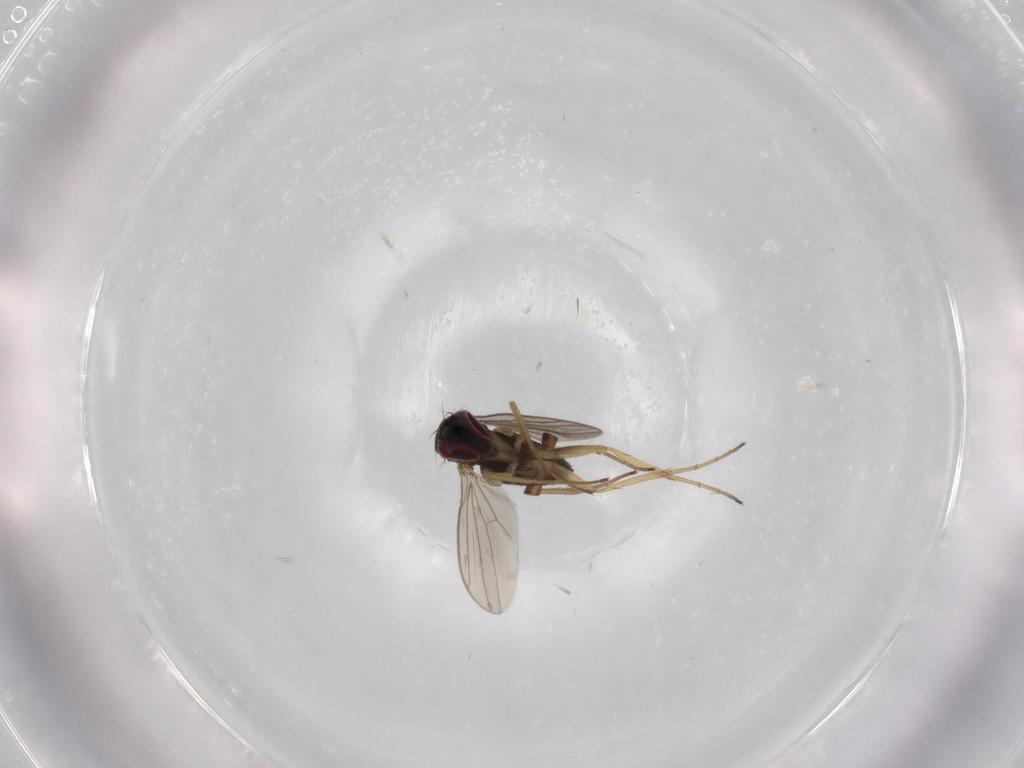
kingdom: Animalia
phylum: Arthropoda
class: Insecta
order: Diptera
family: Dolichopodidae
